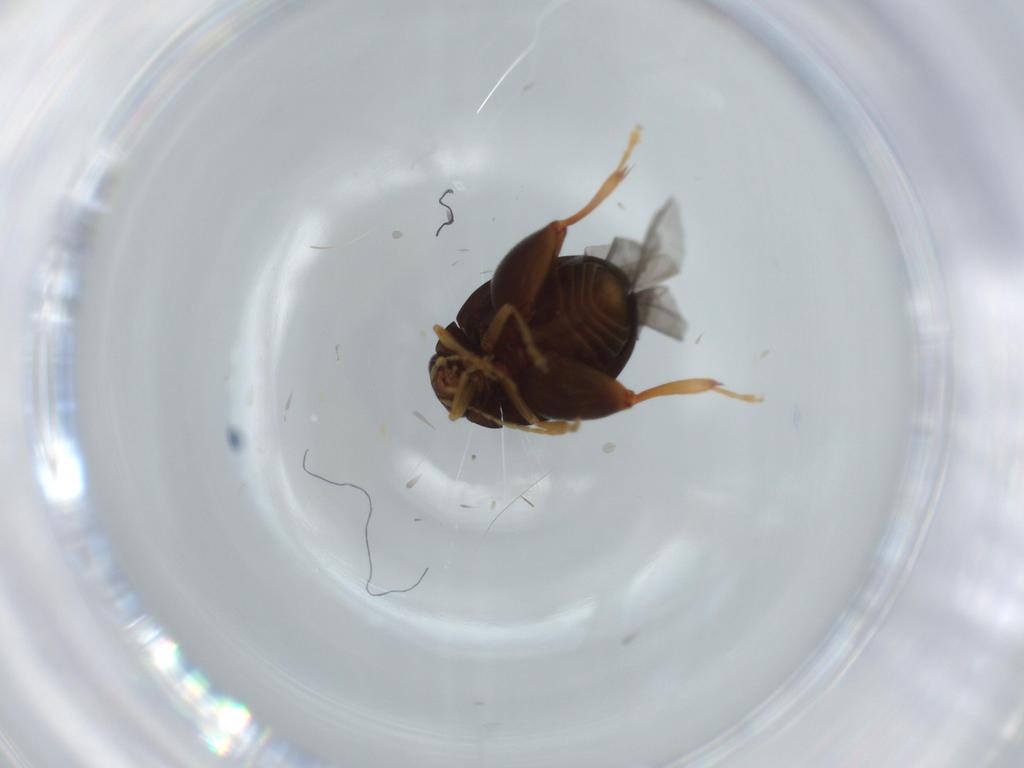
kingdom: Animalia
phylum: Arthropoda
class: Insecta
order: Coleoptera
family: Chrysomelidae
